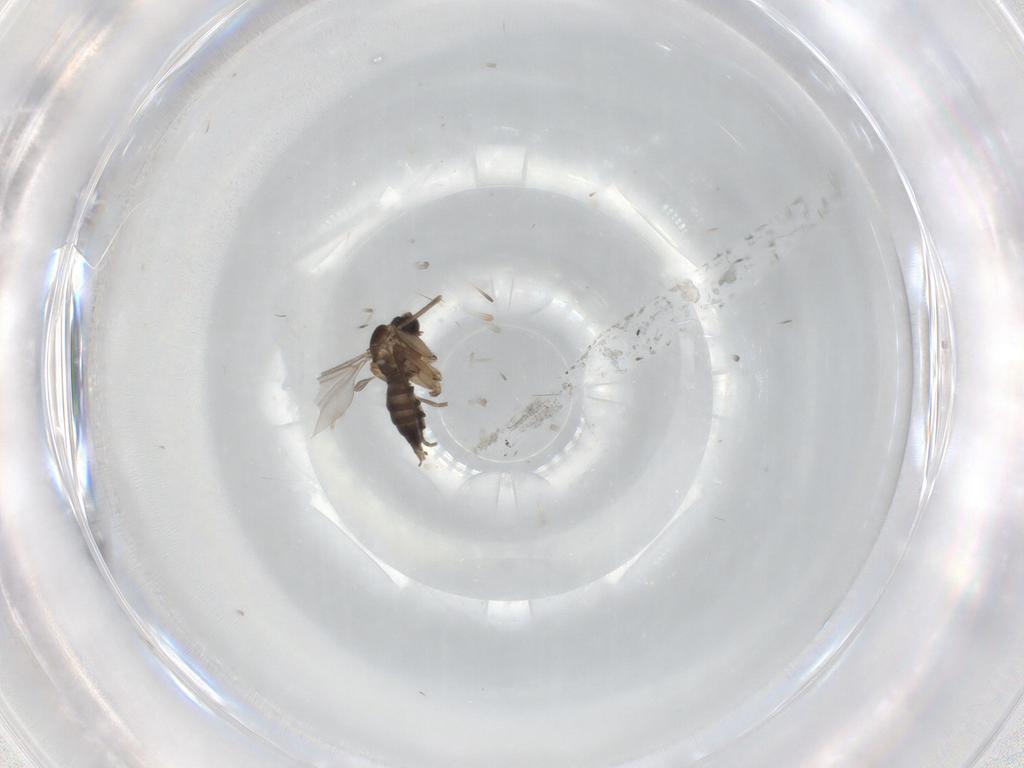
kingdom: Animalia
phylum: Arthropoda
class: Insecta
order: Diptera
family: Sciaridae
